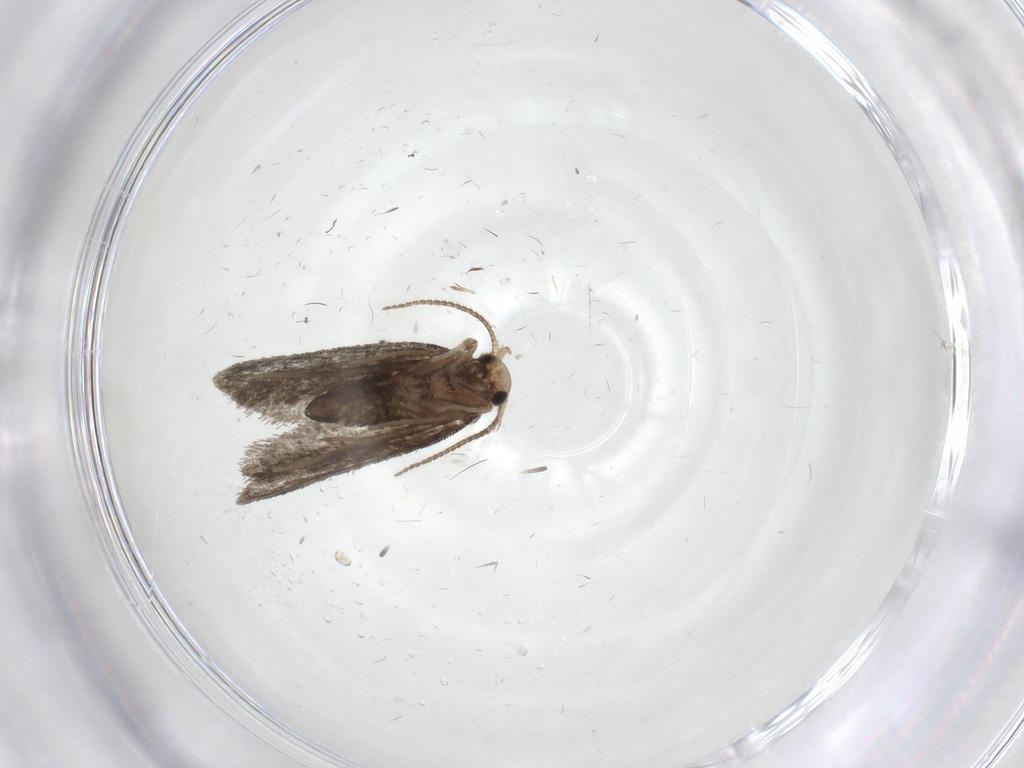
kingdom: Animalia
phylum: Arthropoda
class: Insecta
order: Lepidoptera
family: Psychidae
